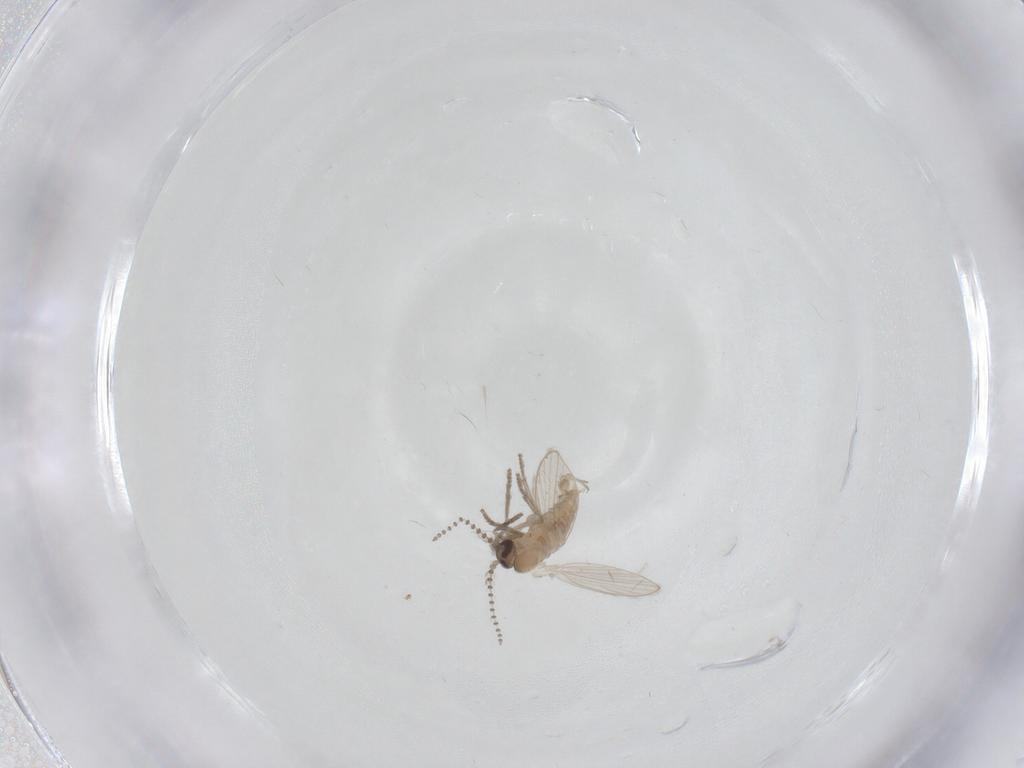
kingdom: Animalia
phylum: Arthropoda
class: Insecta
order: Diptera
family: Psychodidae
